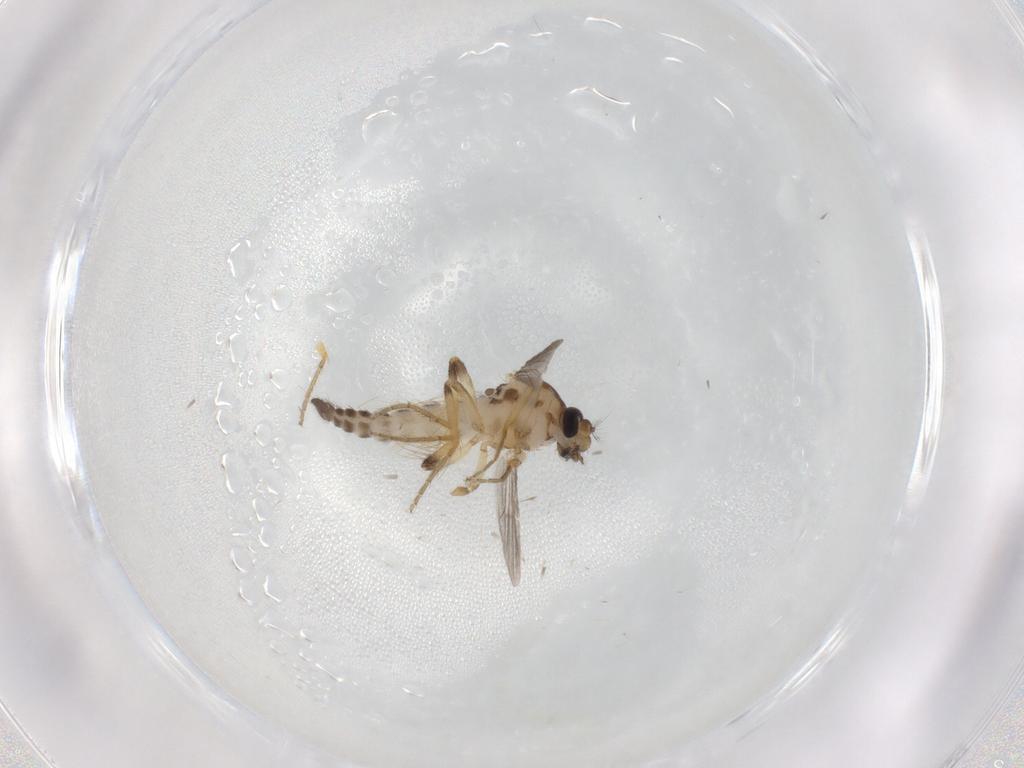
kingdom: Animalia
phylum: Arthropoda
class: Insecta
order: Diptera
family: Ceratopogonidae
